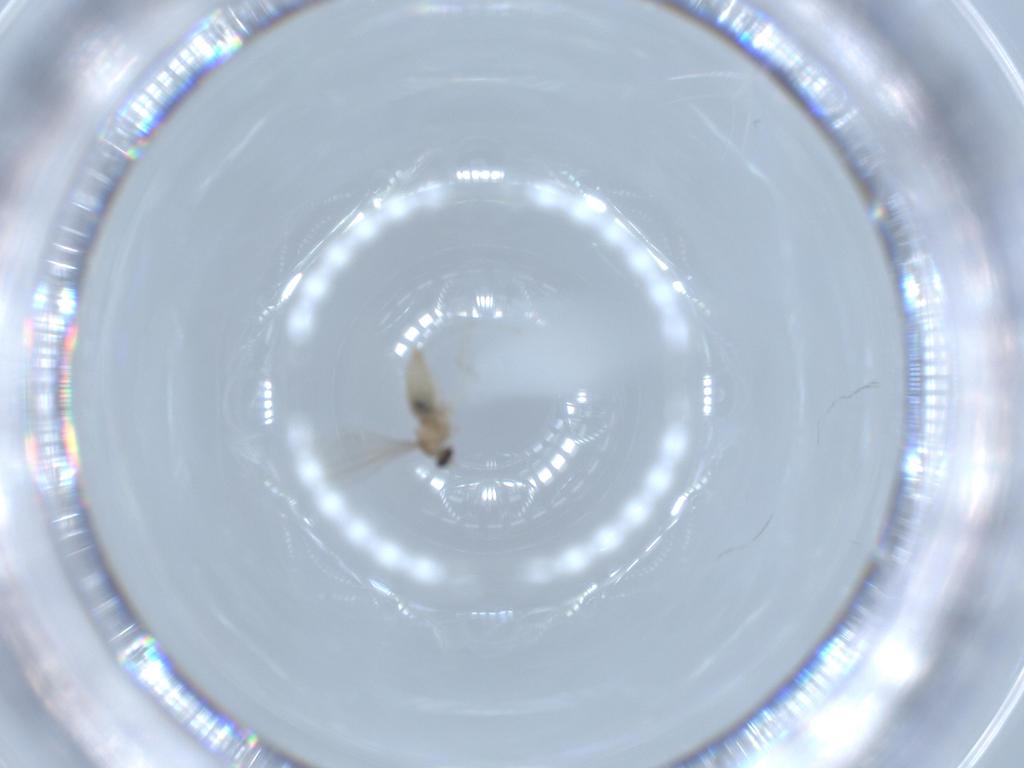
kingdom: Animalia
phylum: Arthropoda
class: Insecta
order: Diptera
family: Cecidomyiidae
